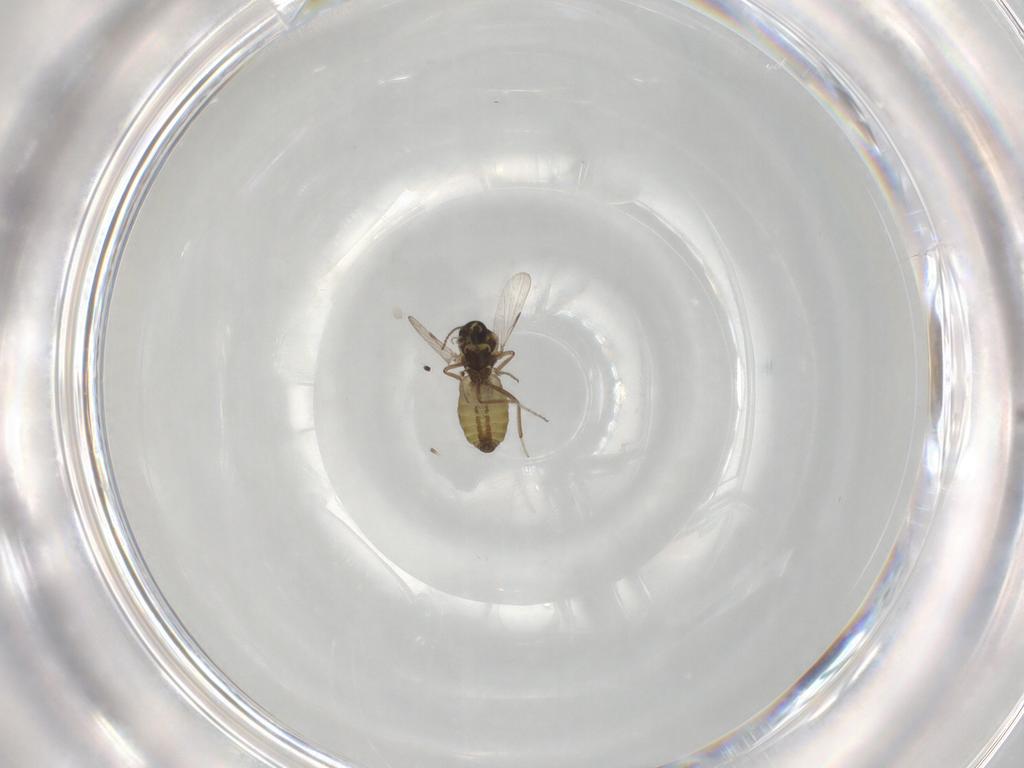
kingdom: Animalia
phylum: Arthropoda
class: Insecta
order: Diptera
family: Ceratopogonidae
